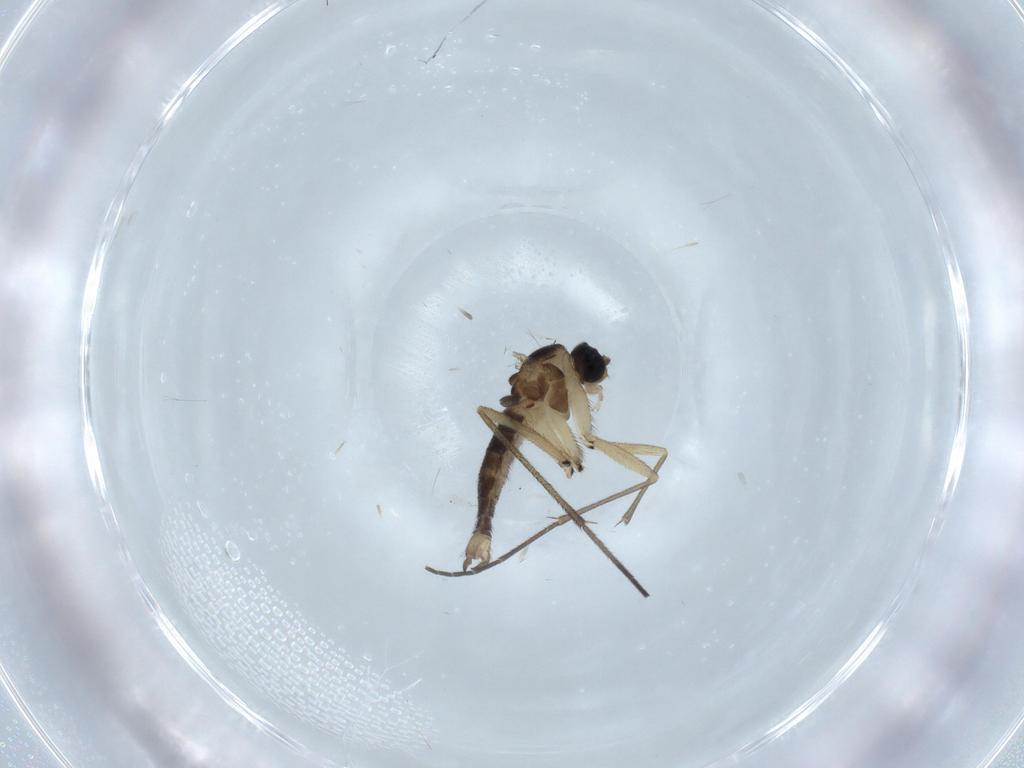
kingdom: Animalia
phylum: Arthropoda
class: Insecta
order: Diptera
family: Sciaridae
